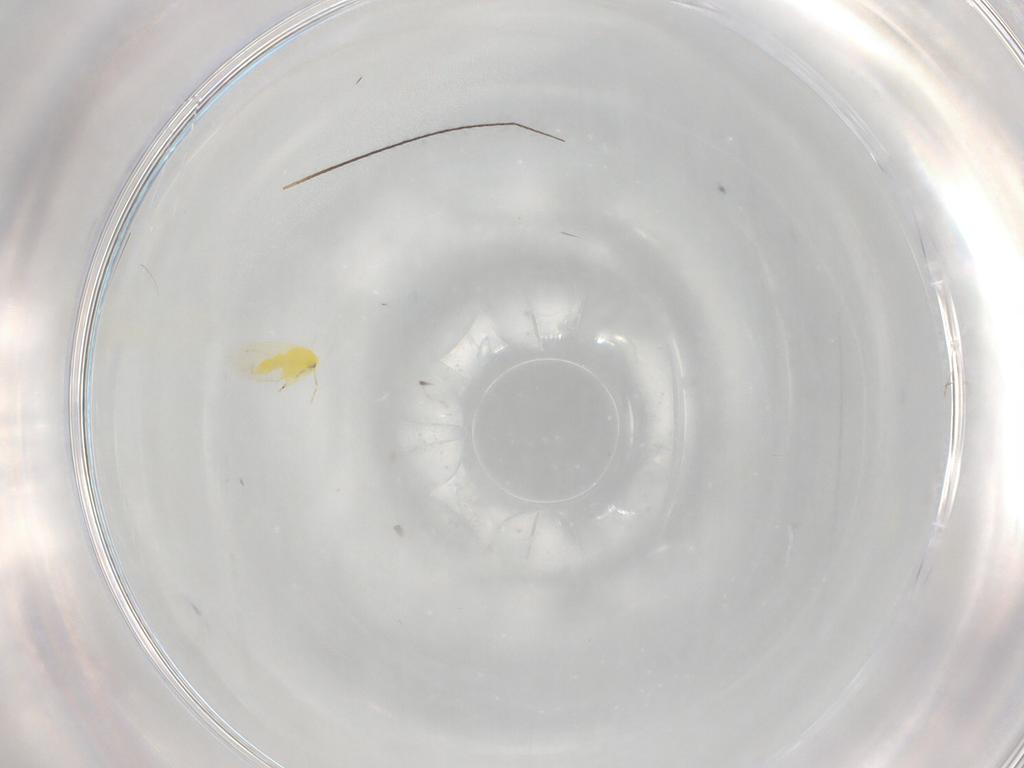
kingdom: Animalia
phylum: Arthropoda
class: Insecta
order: Hemiptera
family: Aleyrodidae
